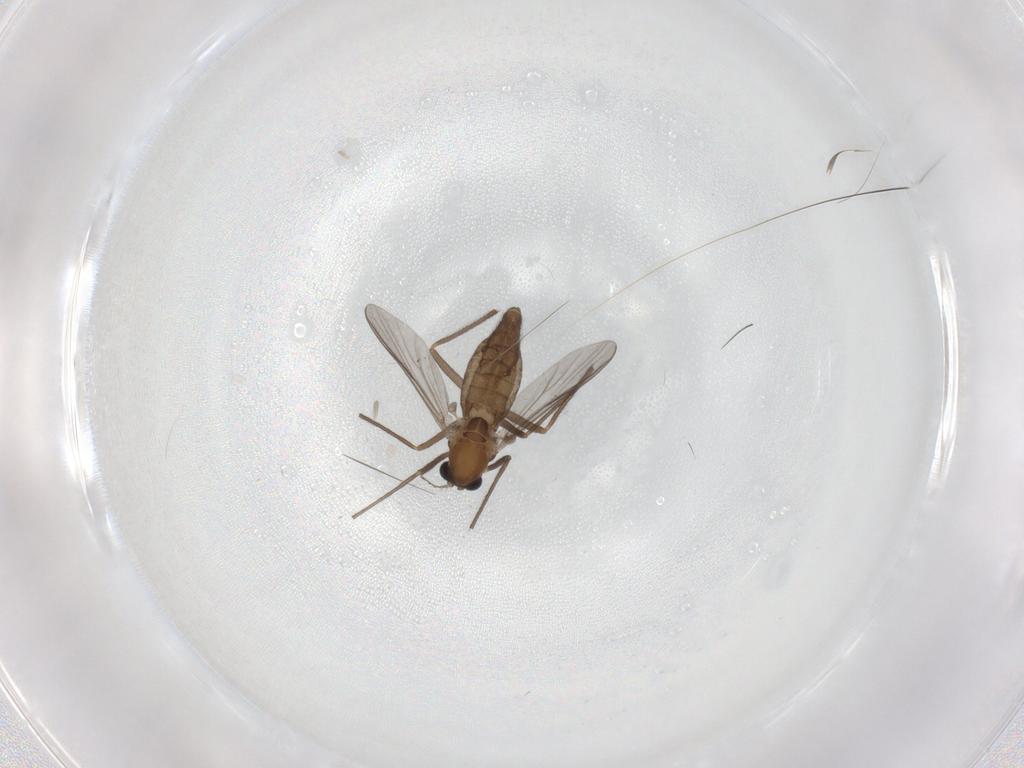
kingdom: Animalia
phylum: Arthropoda
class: Insecta
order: Diptera
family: Chironomidae
